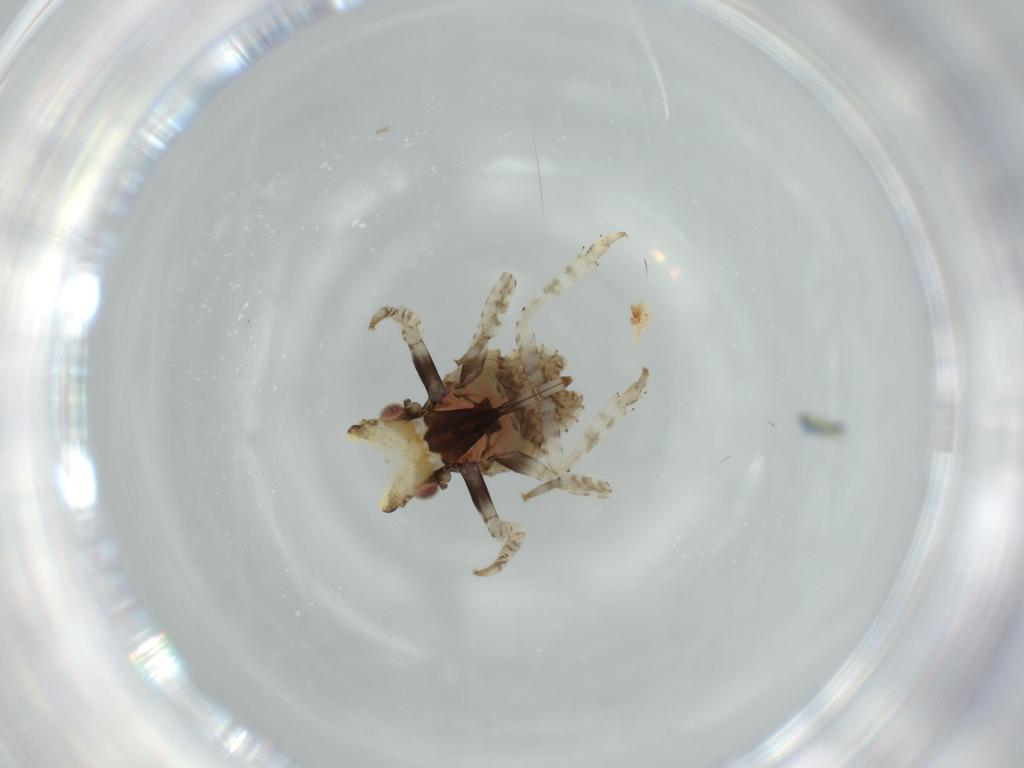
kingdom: Animalia
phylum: Arthropoda
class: Insecta
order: Hemiptera
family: Fulgoridae
